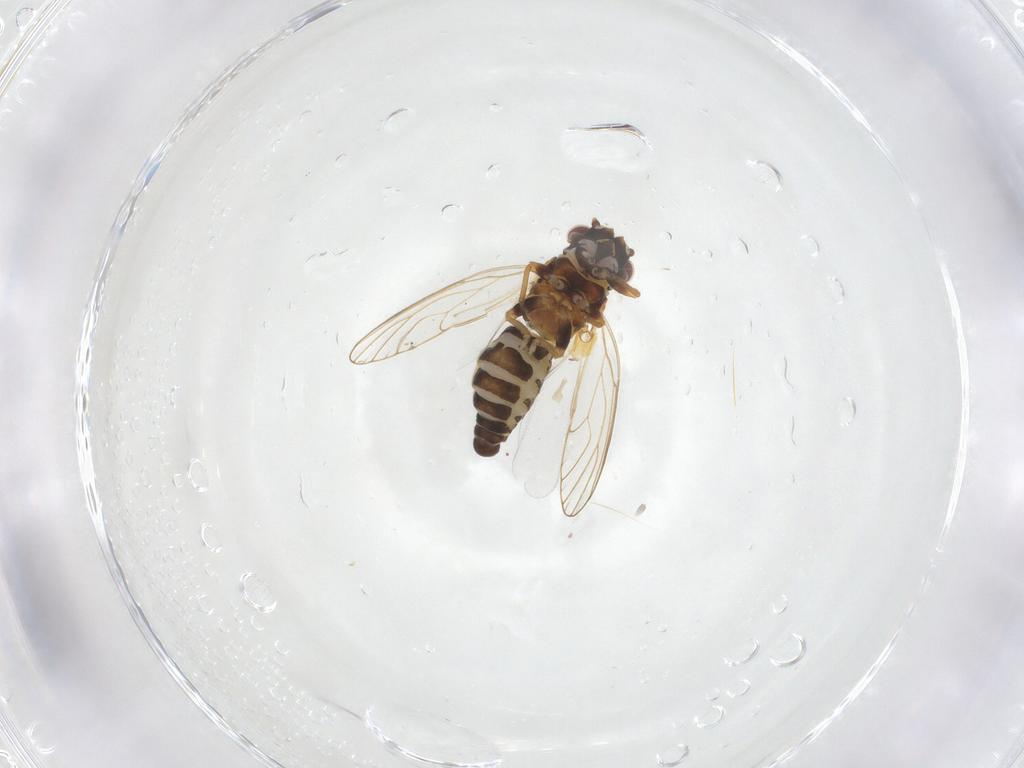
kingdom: Animalia
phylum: Arthropoda
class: Insecta
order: Hemiptera
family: Psylloidea_incertae_sedis
